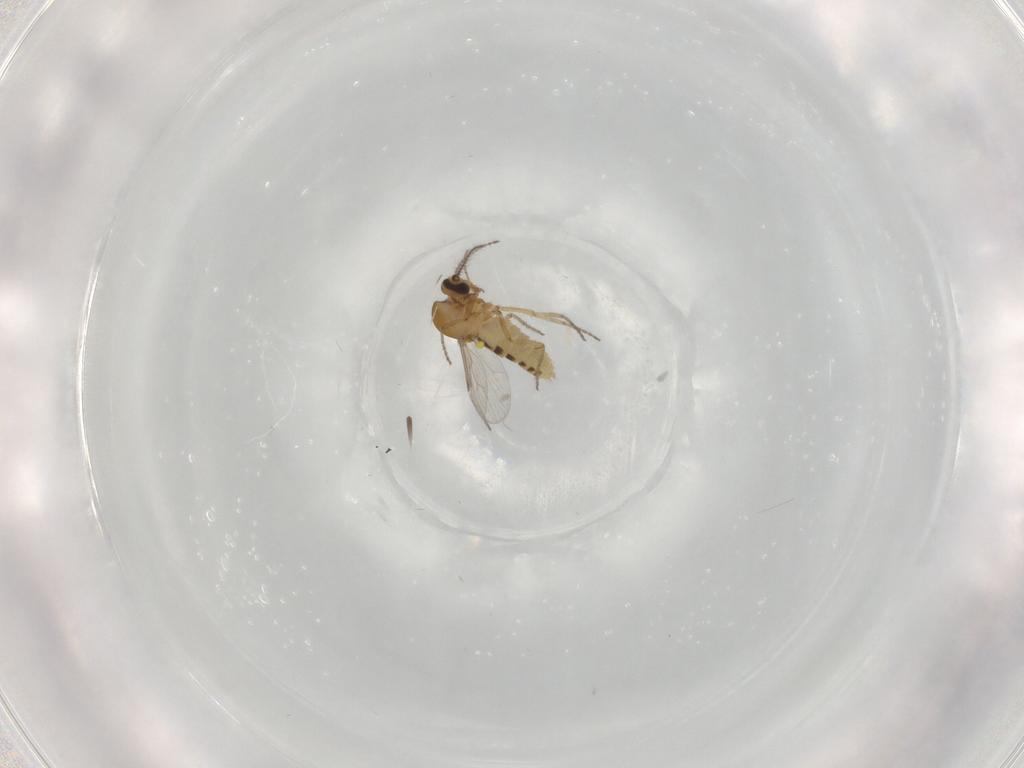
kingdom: Animalia
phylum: Arthropoda
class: Insecta
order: Diptera
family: Ceratopogonidae
